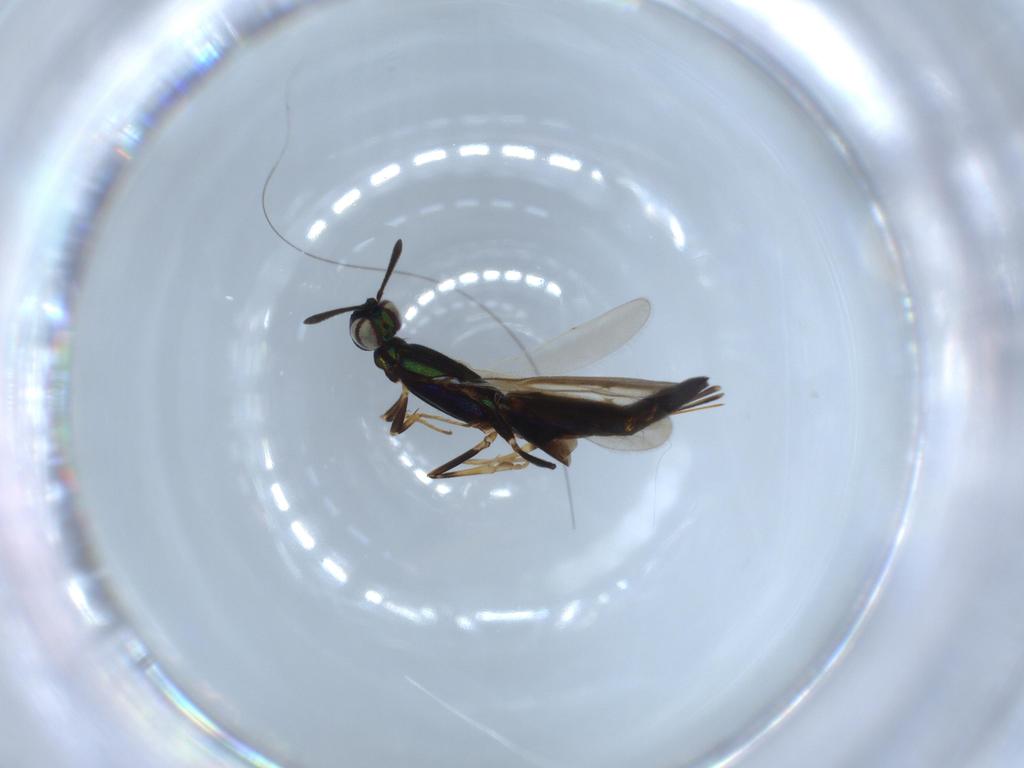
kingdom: Animalia
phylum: Arthropoda
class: Insecta
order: Hymenoptera
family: Eupelmidae
